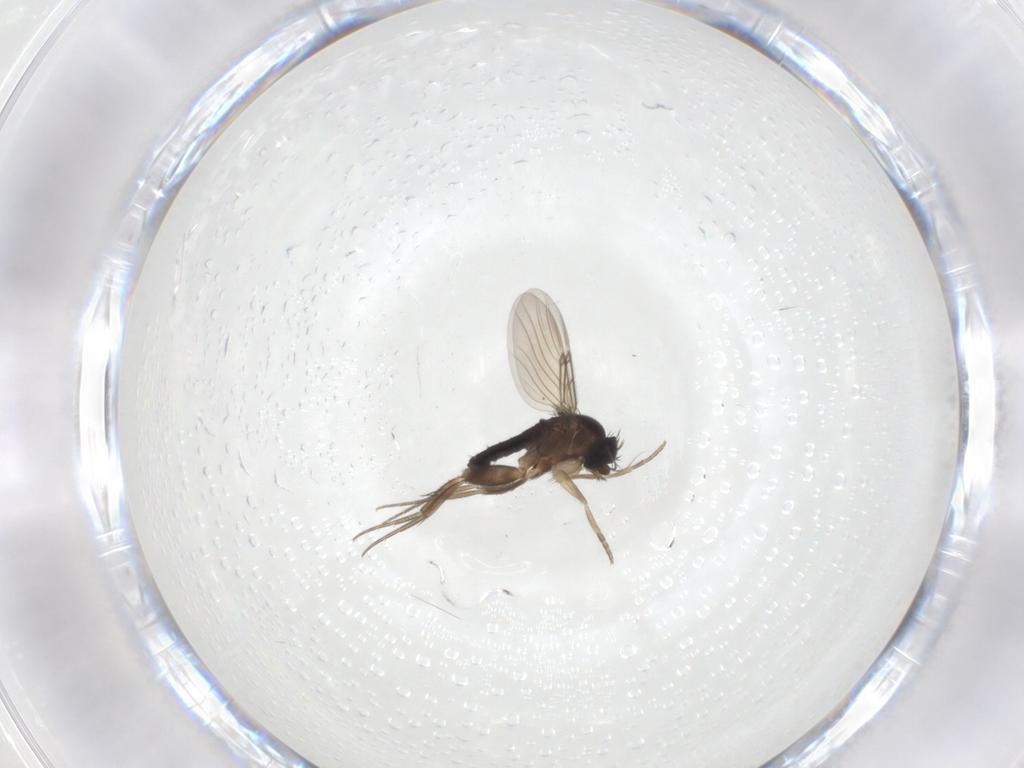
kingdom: Animalia
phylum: Arthropoda
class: Insecta
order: Diptera
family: Phoridae
